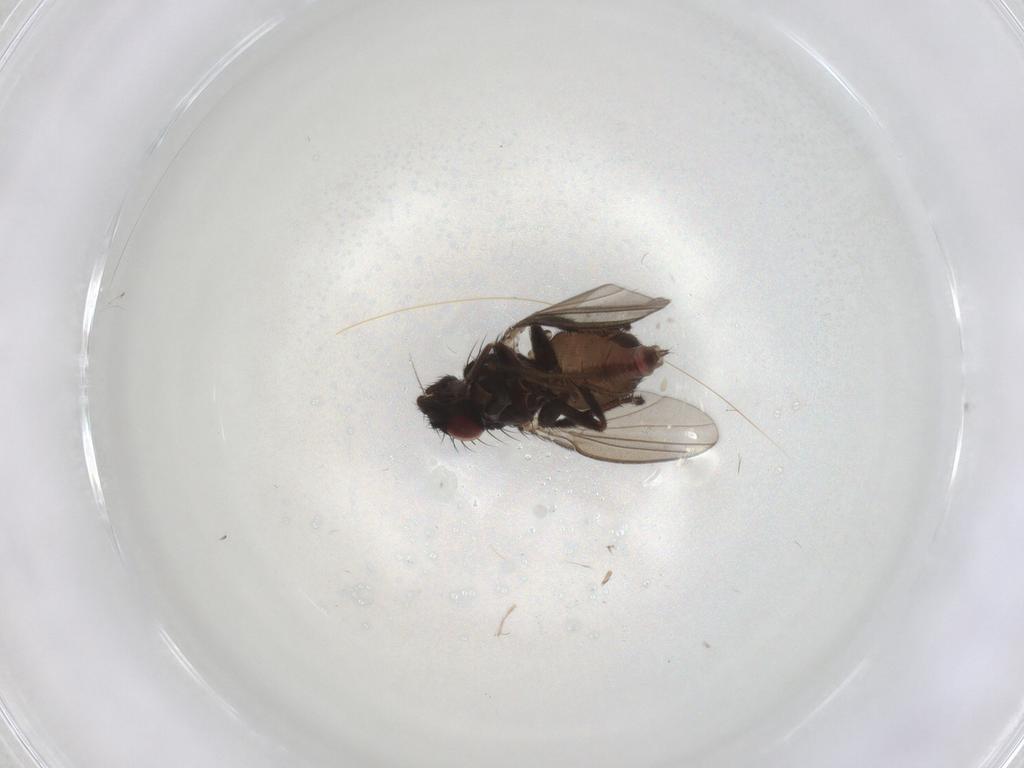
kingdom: Animalia
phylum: Arthropoda
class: Insecta
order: Diptera
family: Milichiidae
